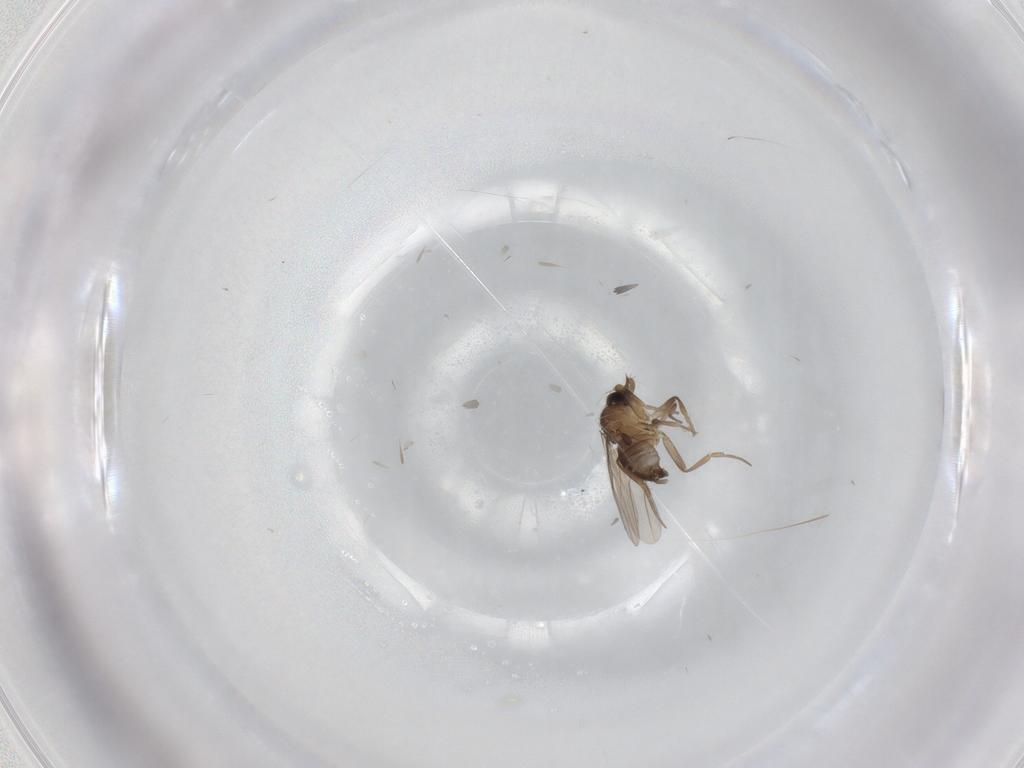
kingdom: Animalia
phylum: Arthropoda
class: Insecta
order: Diptera
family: Phoridae
